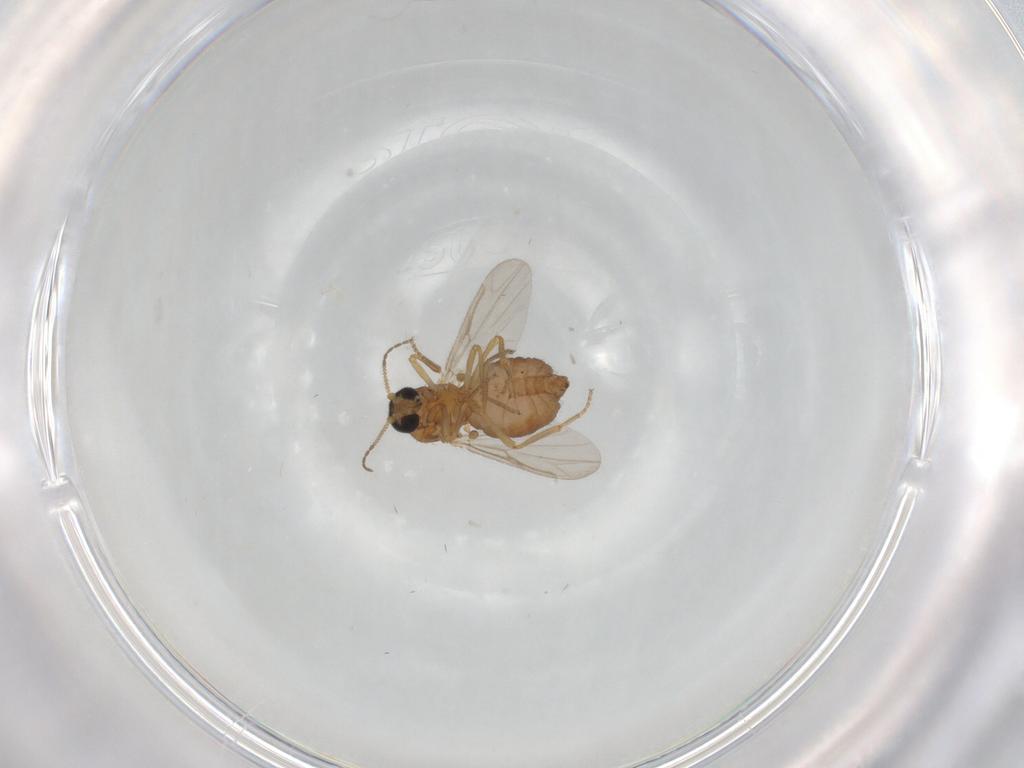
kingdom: Animalia
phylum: Arthropoda
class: Insecta
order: Diptera
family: Ceratopogonidae
